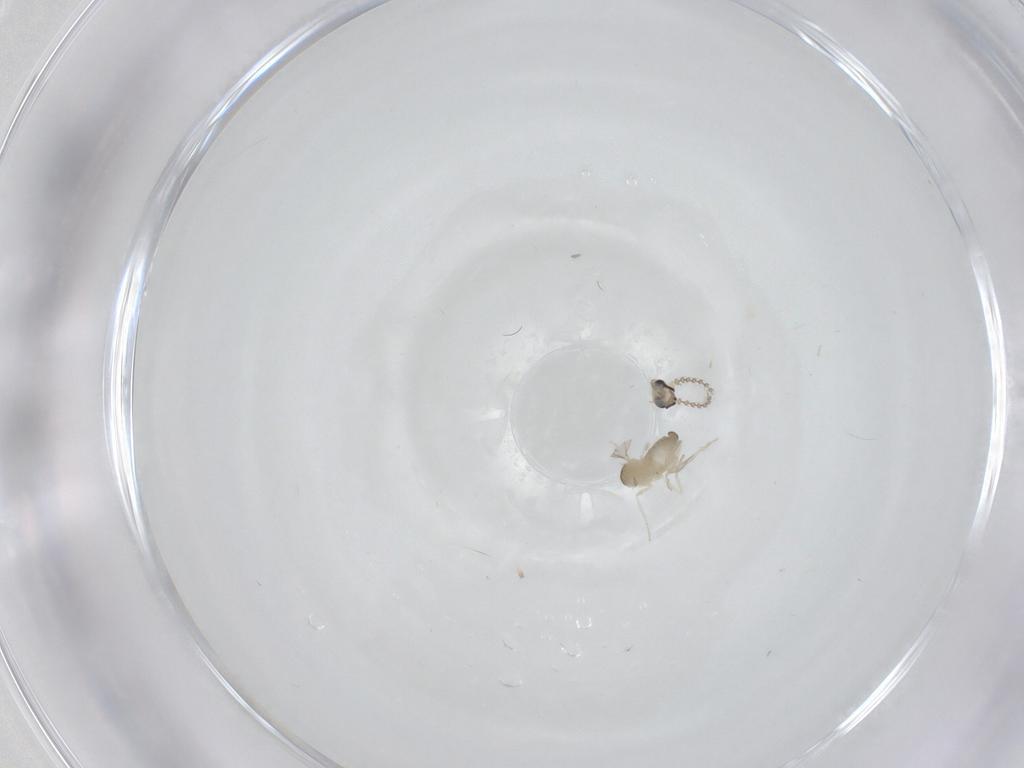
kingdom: Animalia
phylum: Arthropoda
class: Insecta
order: Diptera
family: Cecidomyiidae
